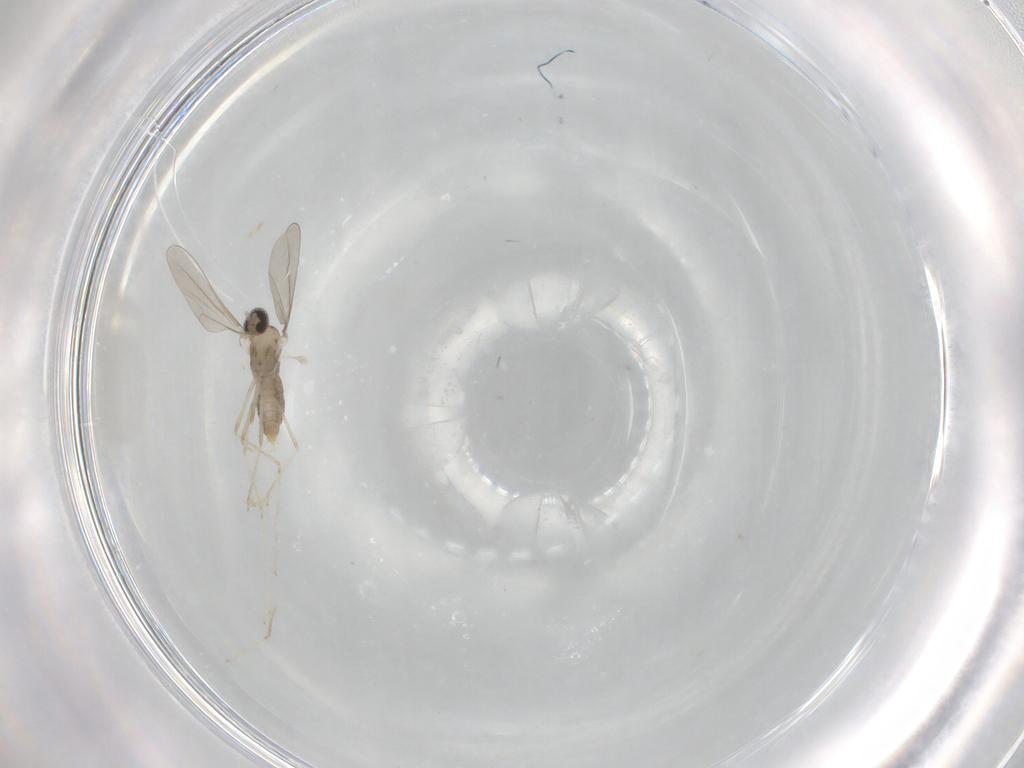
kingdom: Animalia
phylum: Arthropoda
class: Insecta
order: Diptera
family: Cecidomyiidae
